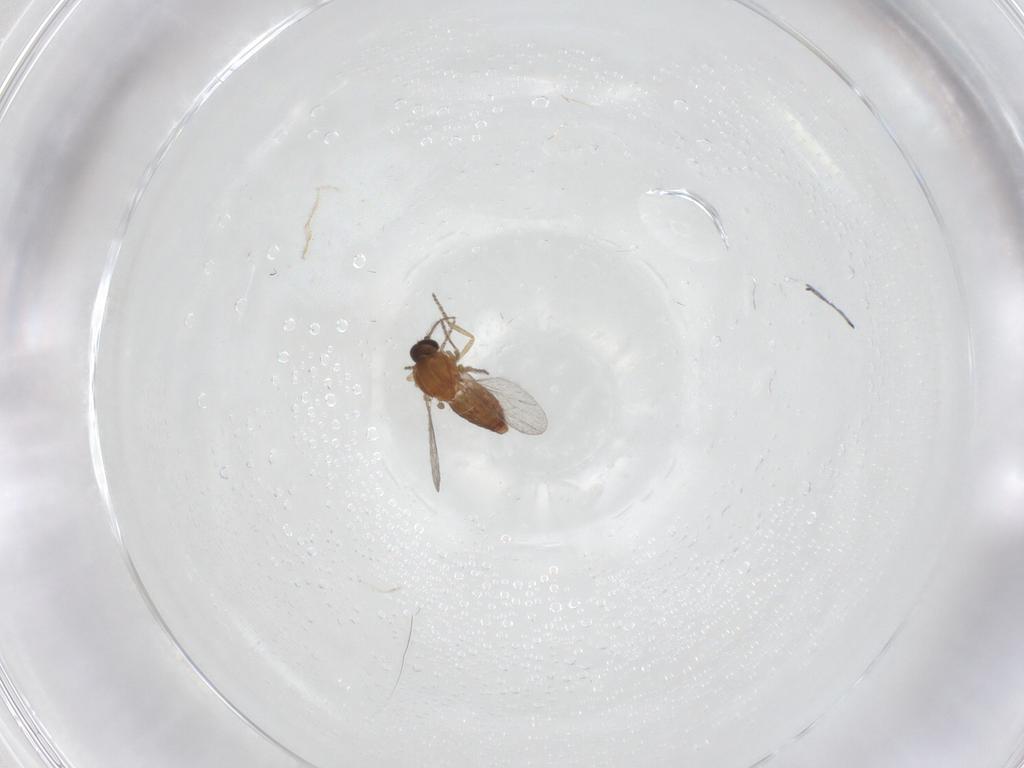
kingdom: Animalia
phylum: Arthropoda
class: Insecta
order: Diptera
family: Ceratopogonidae
